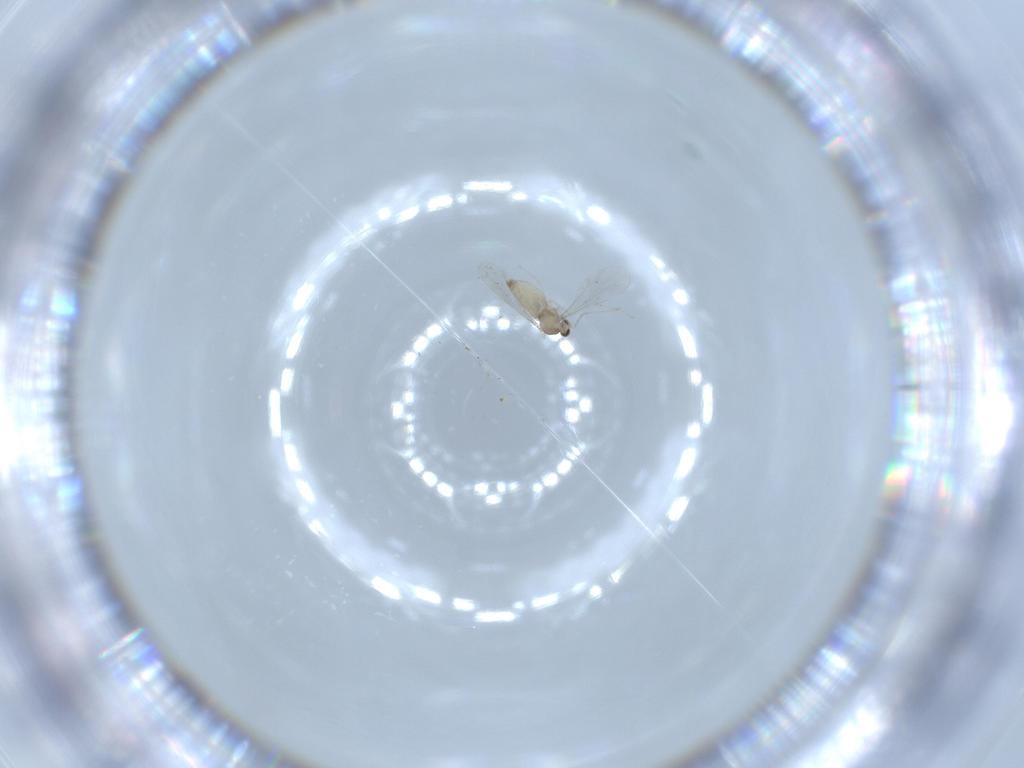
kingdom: Animalia
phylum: Arthropoda
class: Insecta
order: Diptera
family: Cecidomyiidae
